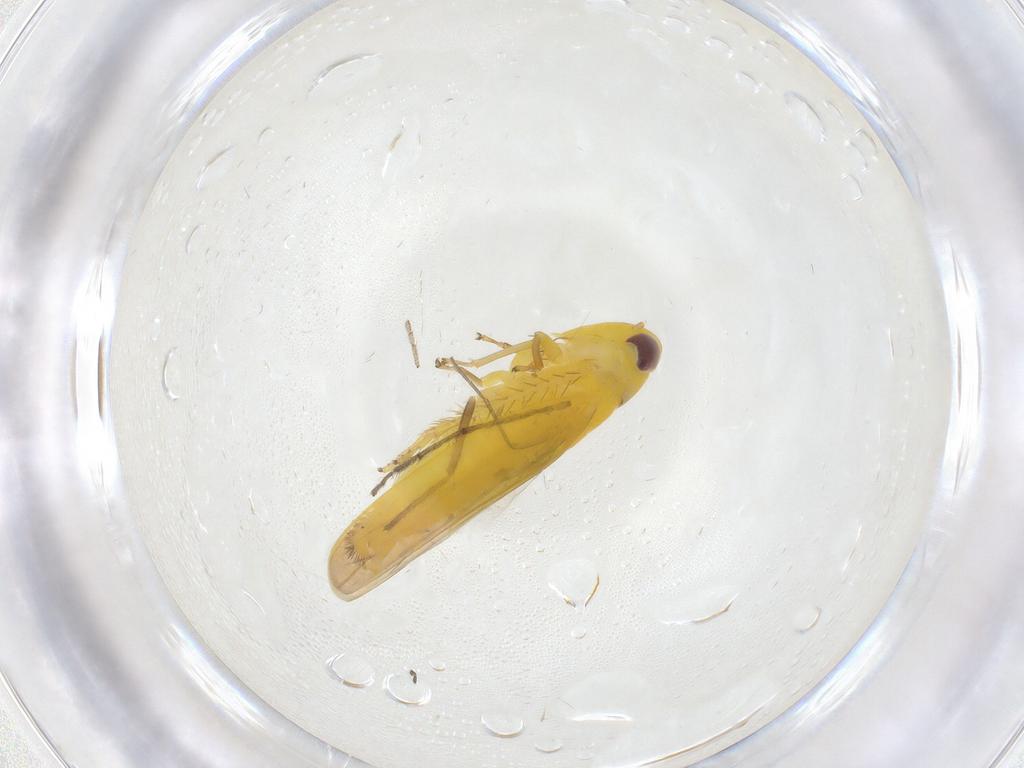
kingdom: Animalia
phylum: Arthropoda
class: Insecta
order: Hemiptera
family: Cicadellidae
